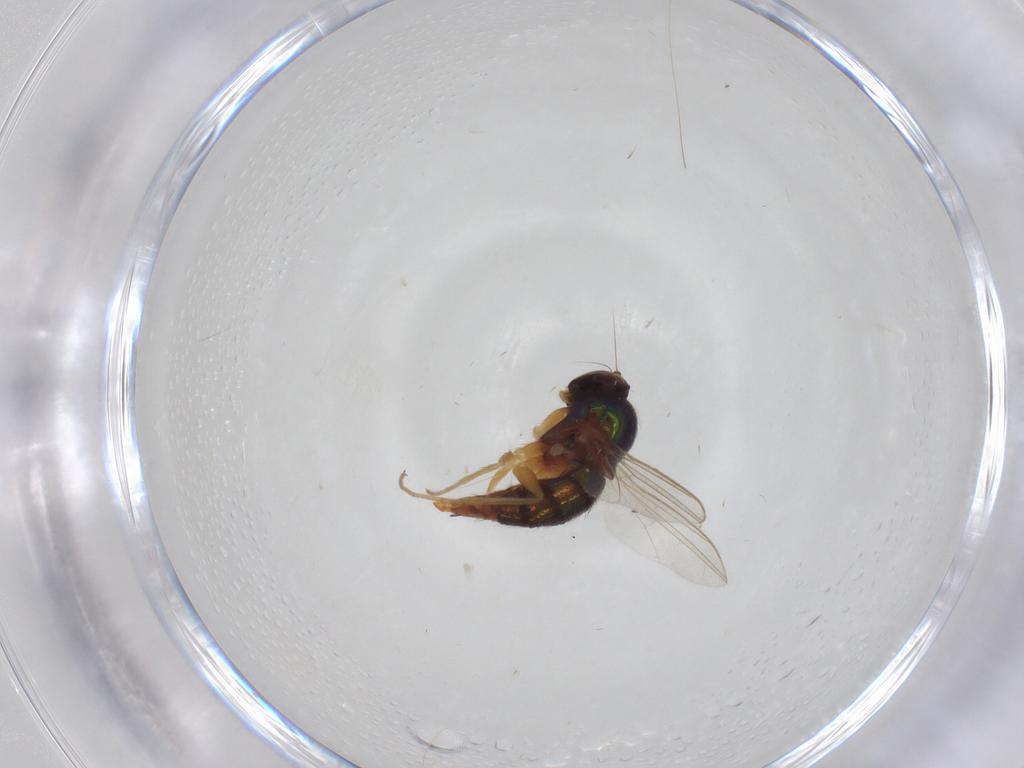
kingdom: Animalia
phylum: Arthropoda
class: Insecta
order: Diptera
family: Dolichopodidae
